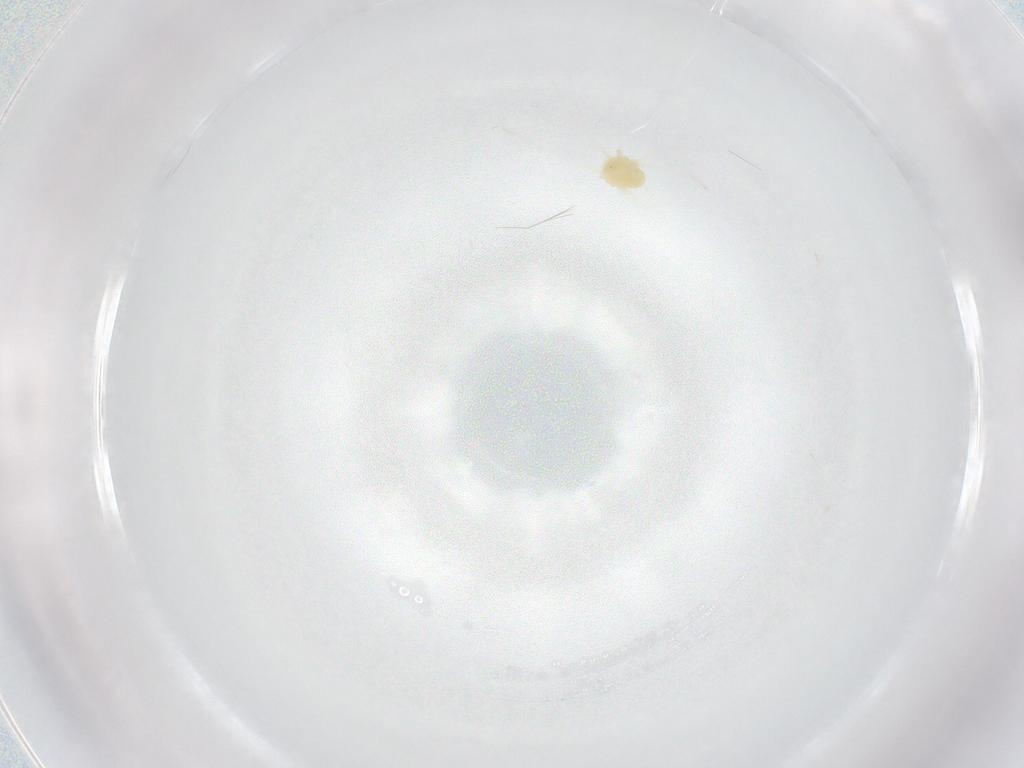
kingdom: Animalia
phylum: Arthropoda
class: Arachnida
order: Trombidiformes
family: Tetranychidae
